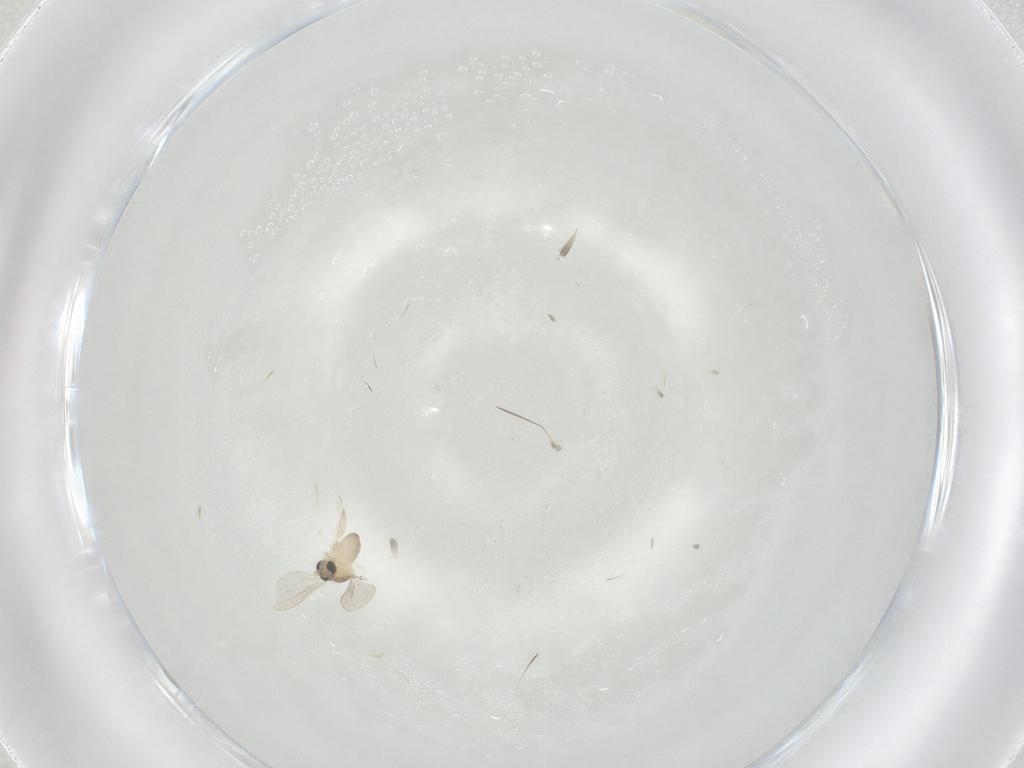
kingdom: Animalia
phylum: Arthropoda
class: Insecta
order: Diptera
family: Cecidomyiidae
